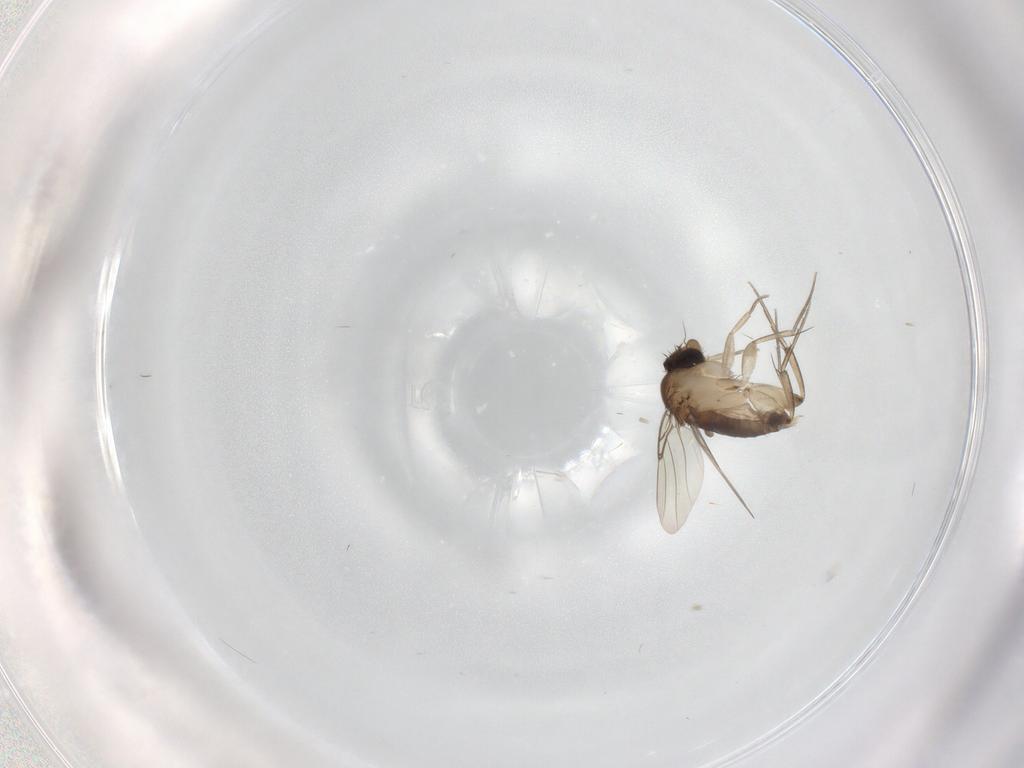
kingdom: Animalia
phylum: Arthropoda
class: Insecta
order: Diptera
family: Phoridae
